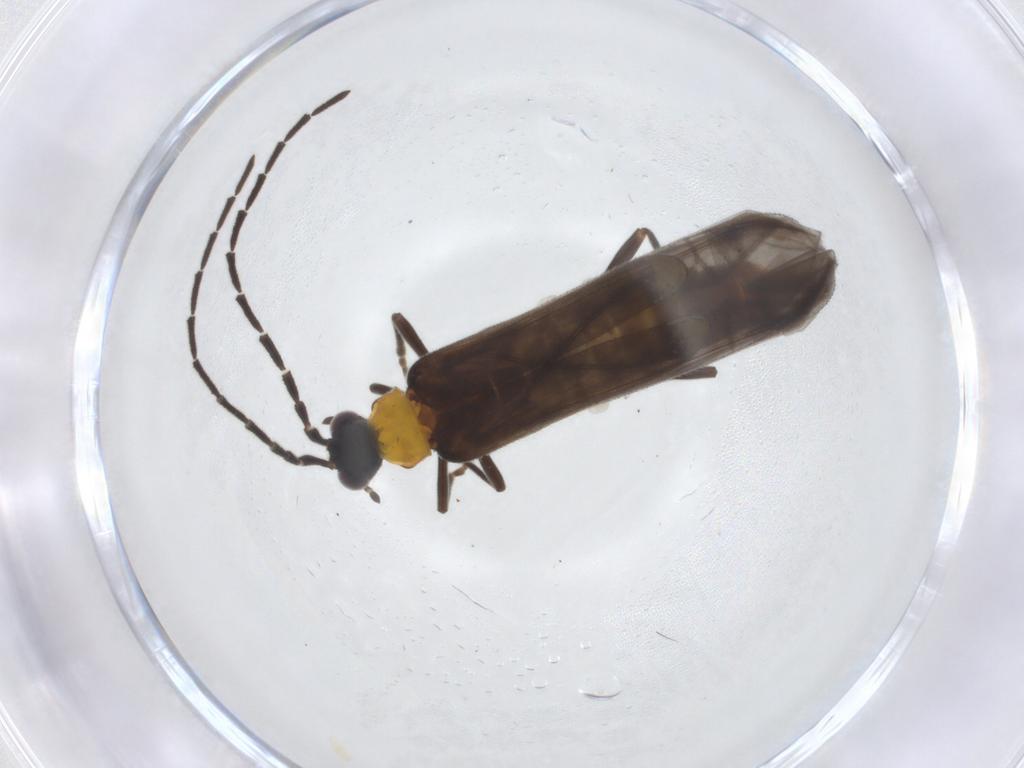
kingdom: Animalia
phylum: Arthropoda
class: Insecta
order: Coleoptera
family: Cantharidae
